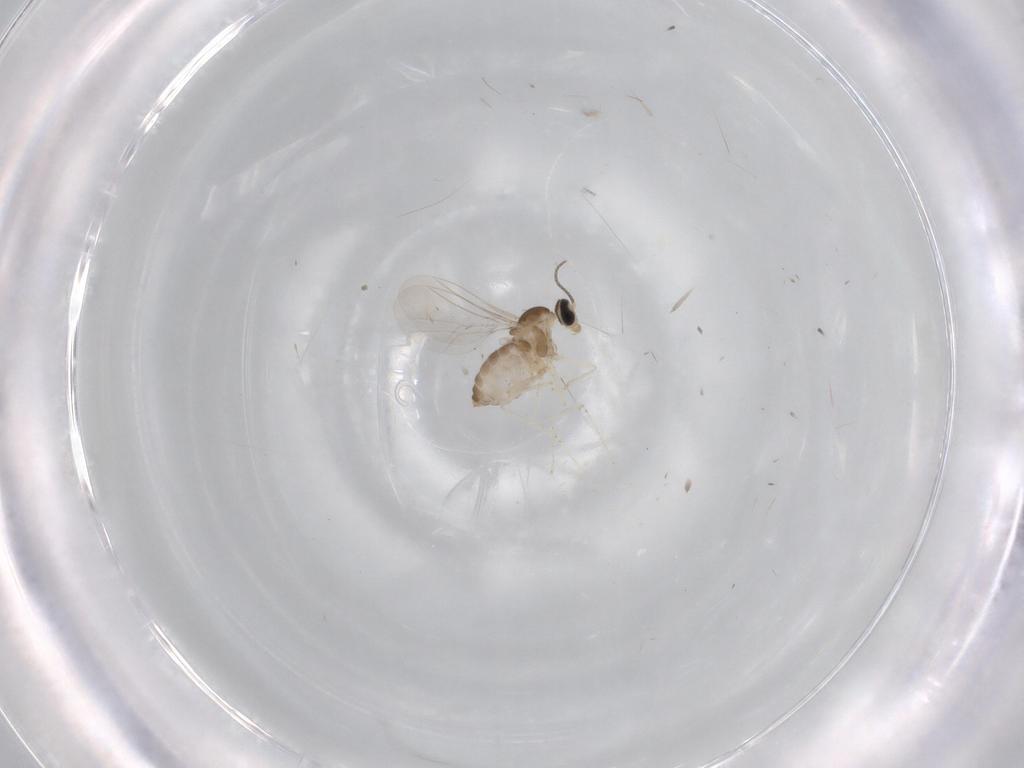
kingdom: Animalia
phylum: Arthropoda
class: Insecta
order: Diptera
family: Cecidomyiidae
